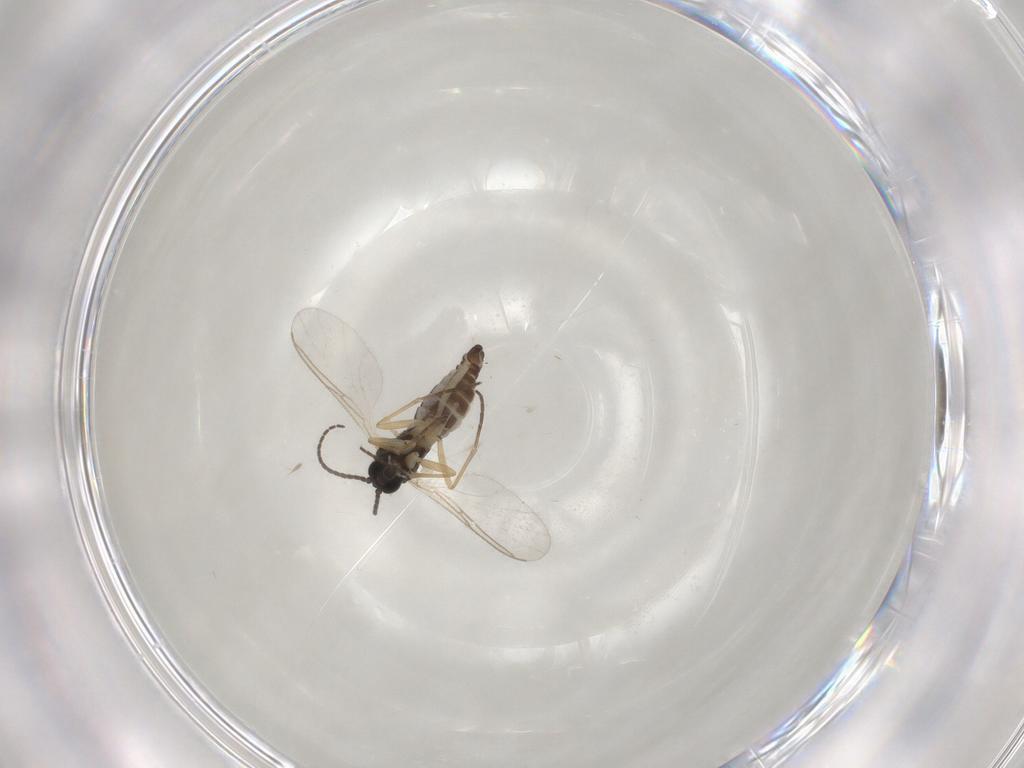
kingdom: Animalia
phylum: Arthropoda
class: Insecta
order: Diptera
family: Sciaridae
